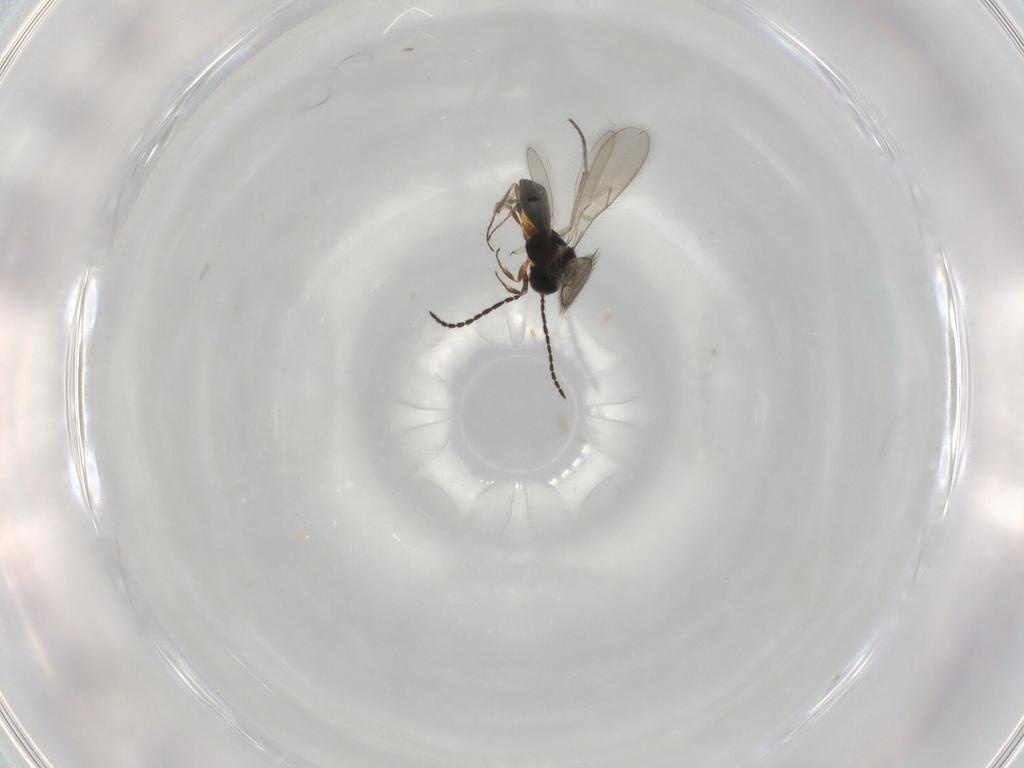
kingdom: Animalia
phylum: Arthropoda
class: Insecta
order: Hymenoptera
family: Scelionidae
